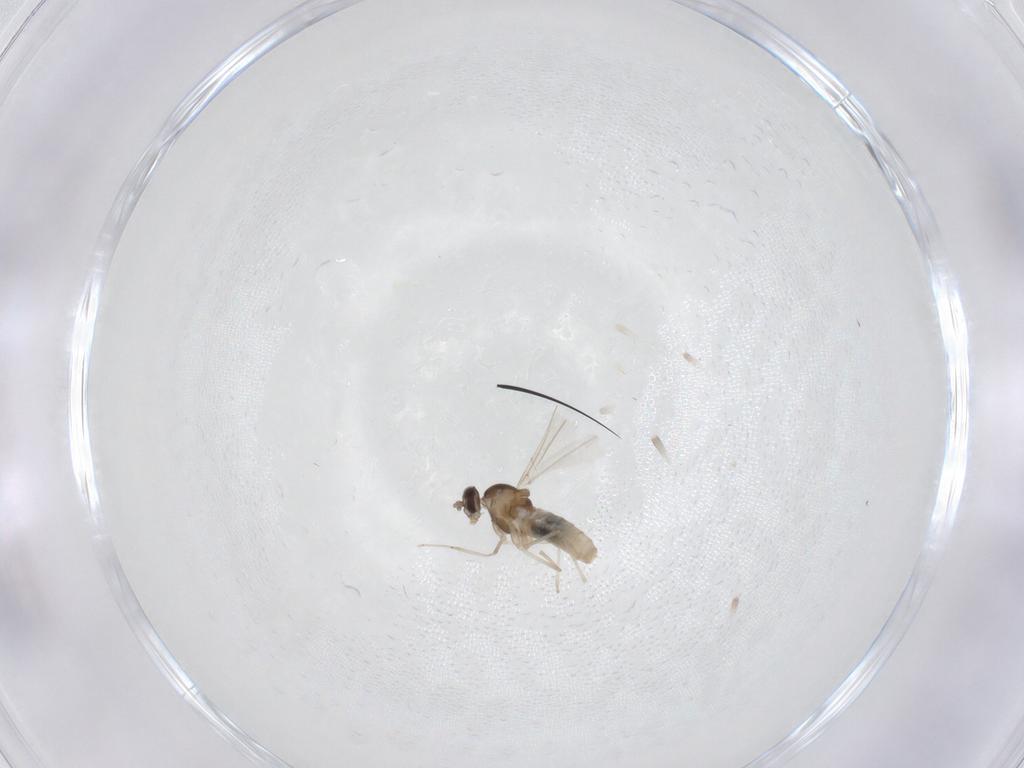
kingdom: Animalia
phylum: Arthropoda
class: Insecta
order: Diptera
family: Cecidomyiidae
